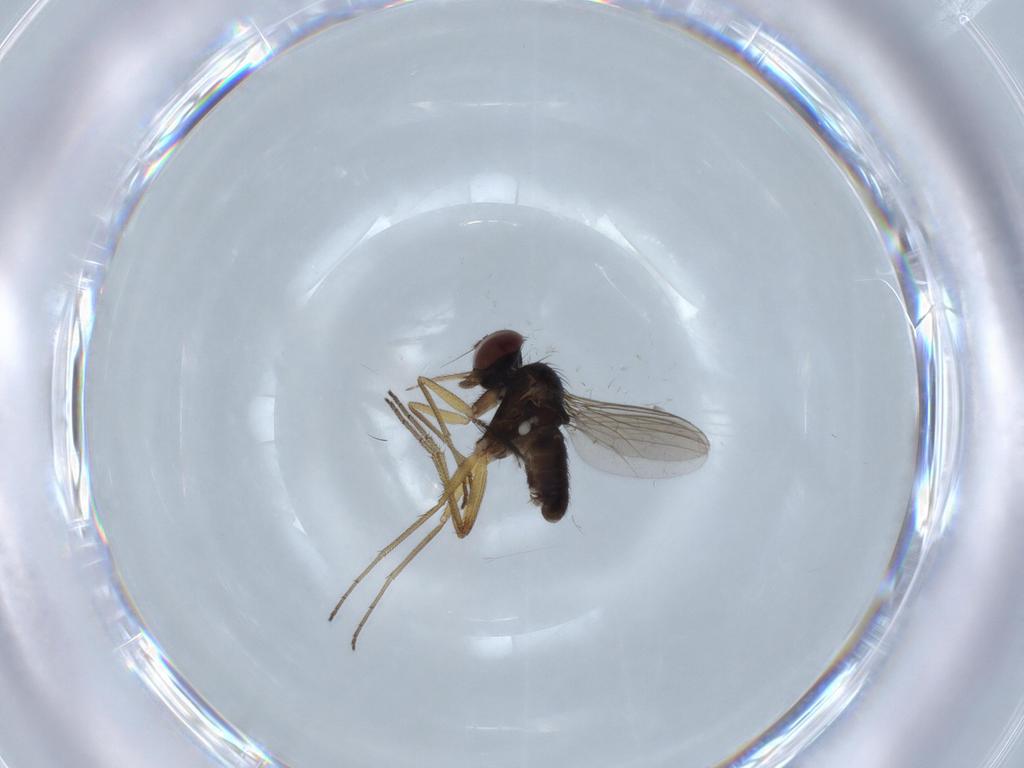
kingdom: Animalia
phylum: Arthropoda
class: Insecta
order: Diptera
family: Dolichopodidae
